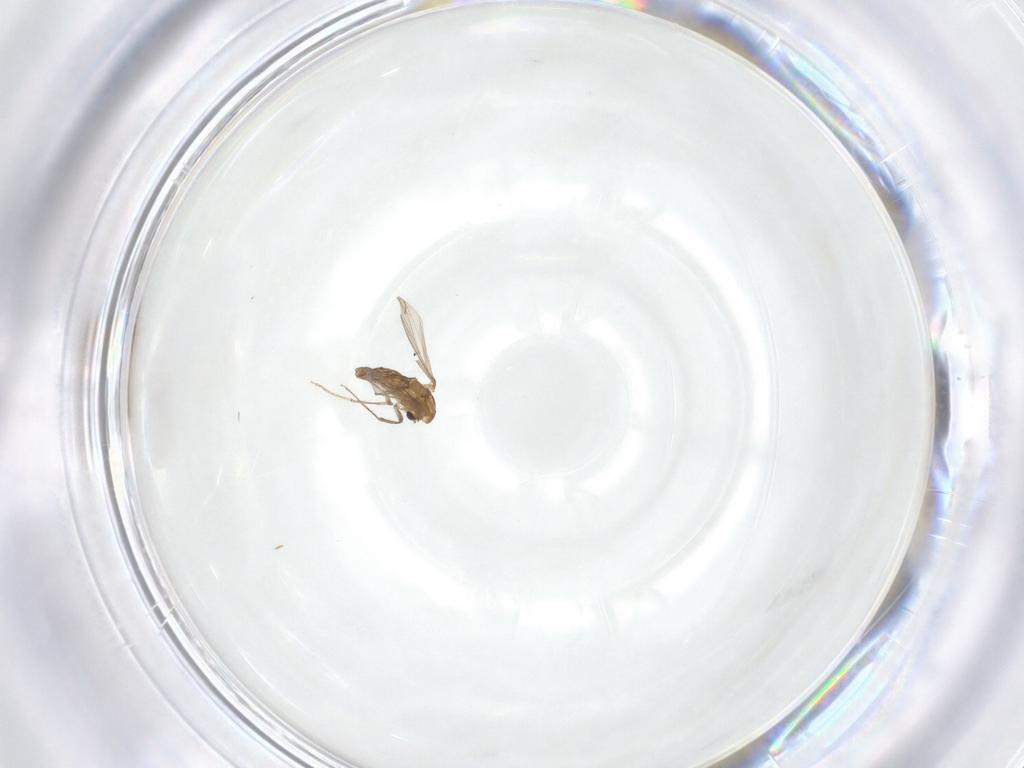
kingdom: Animalia
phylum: Arthropoda
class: Insecta
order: Diptera
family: Chironomidae
